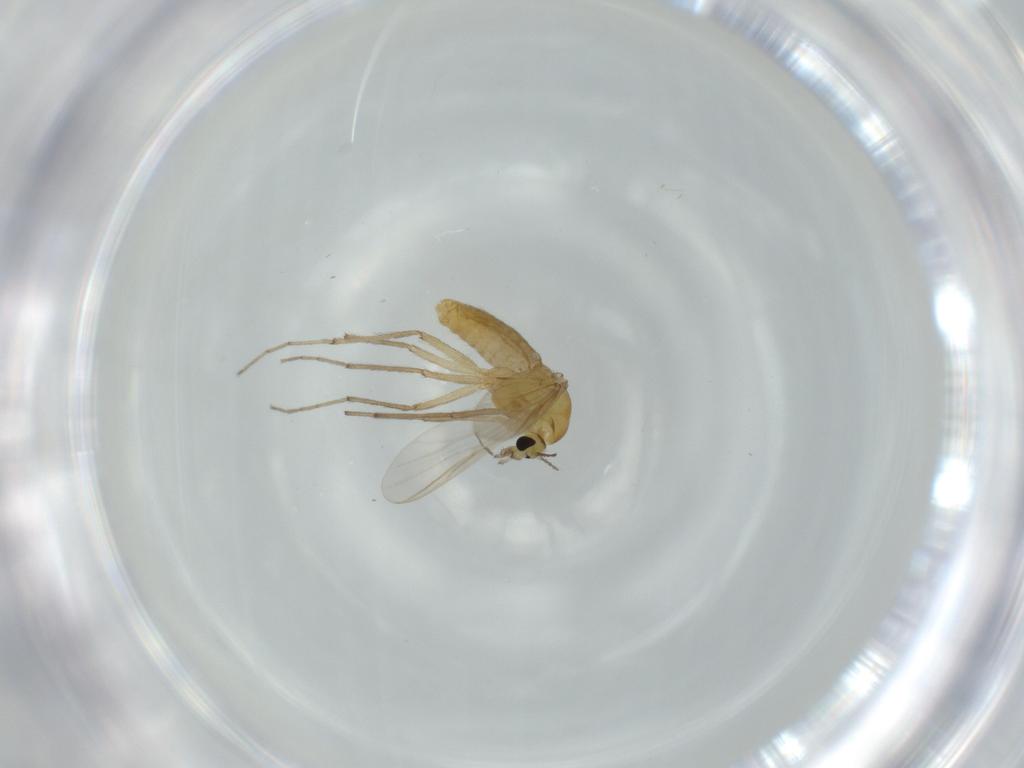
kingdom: Animalia
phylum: Arthropoda
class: Insecta
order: Diptera
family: Chironomidae
